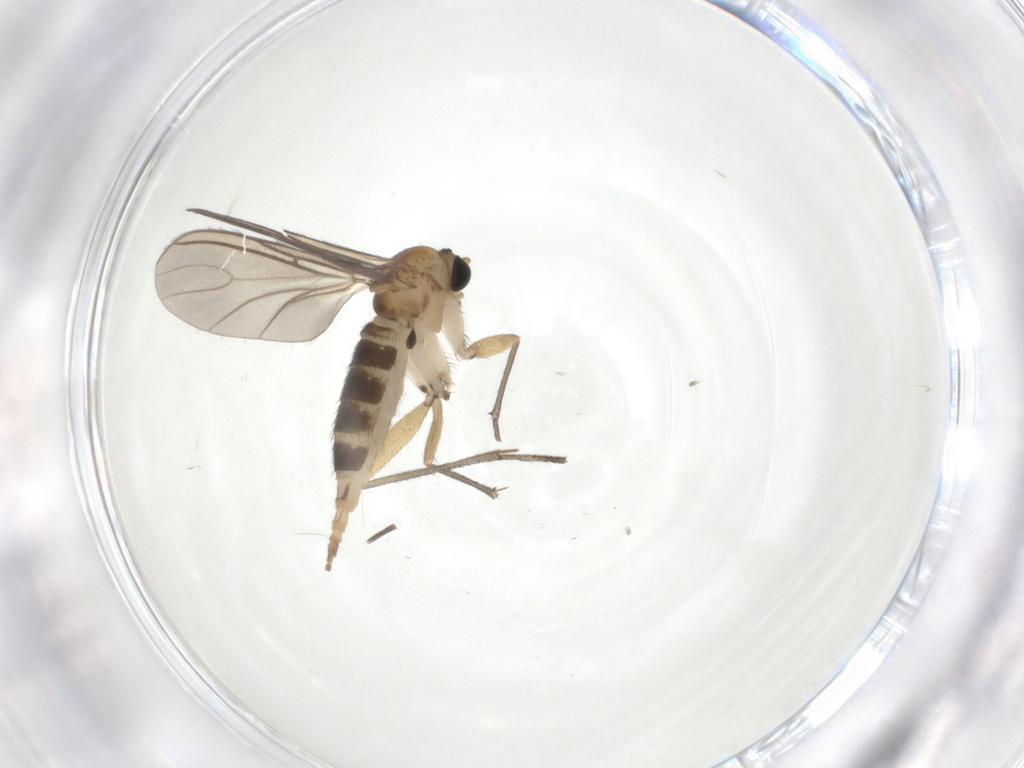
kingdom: Animalia
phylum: Arthropoda
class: Insecta
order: Diptera
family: Sciaridae
